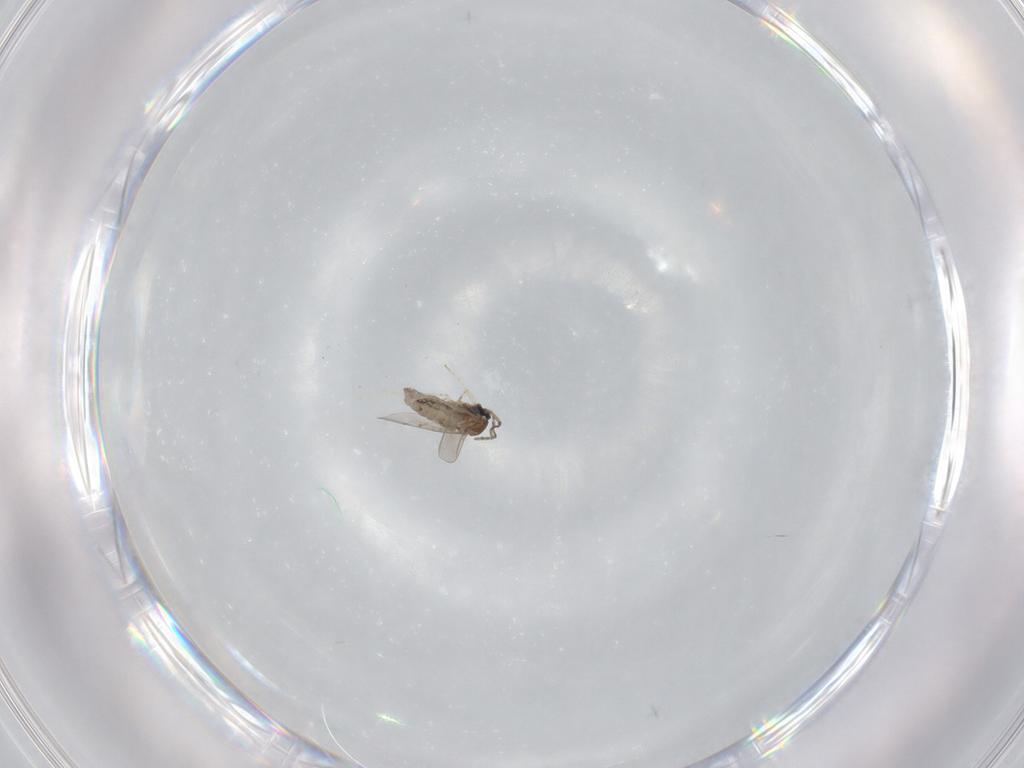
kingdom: Animalia
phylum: Arthropoda
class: Insecta
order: Diptera
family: Cecidomyiidae
